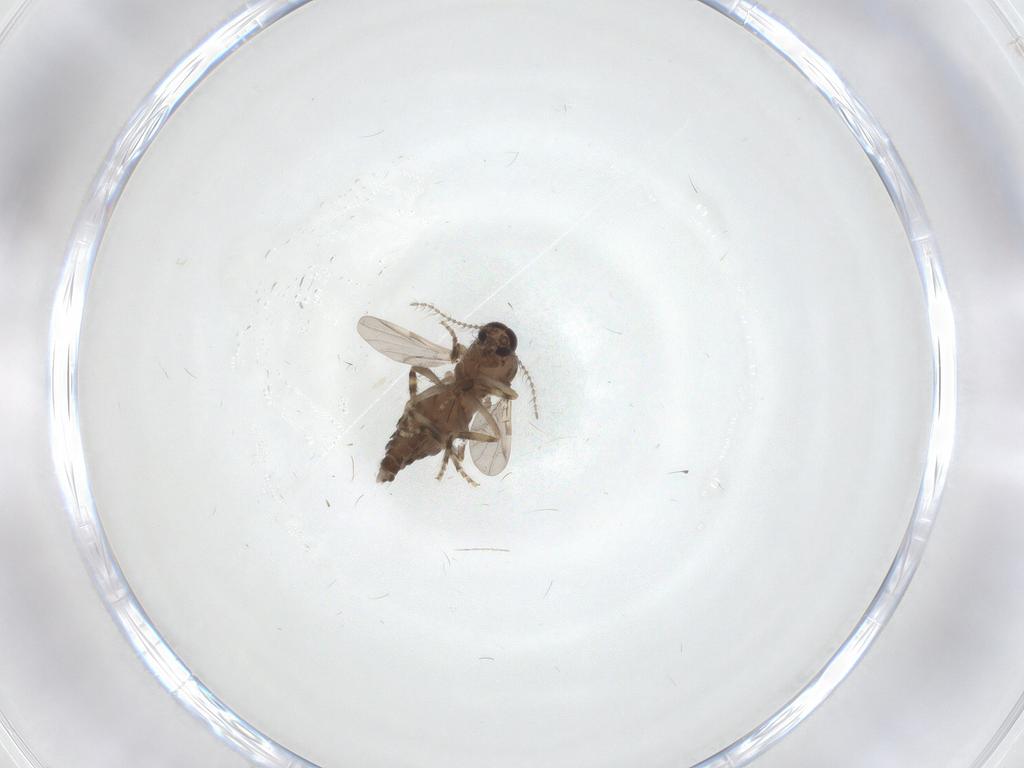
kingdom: Animalia
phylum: Arthropoda
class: Insecta
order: Diptera
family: Ceratopogonidae
